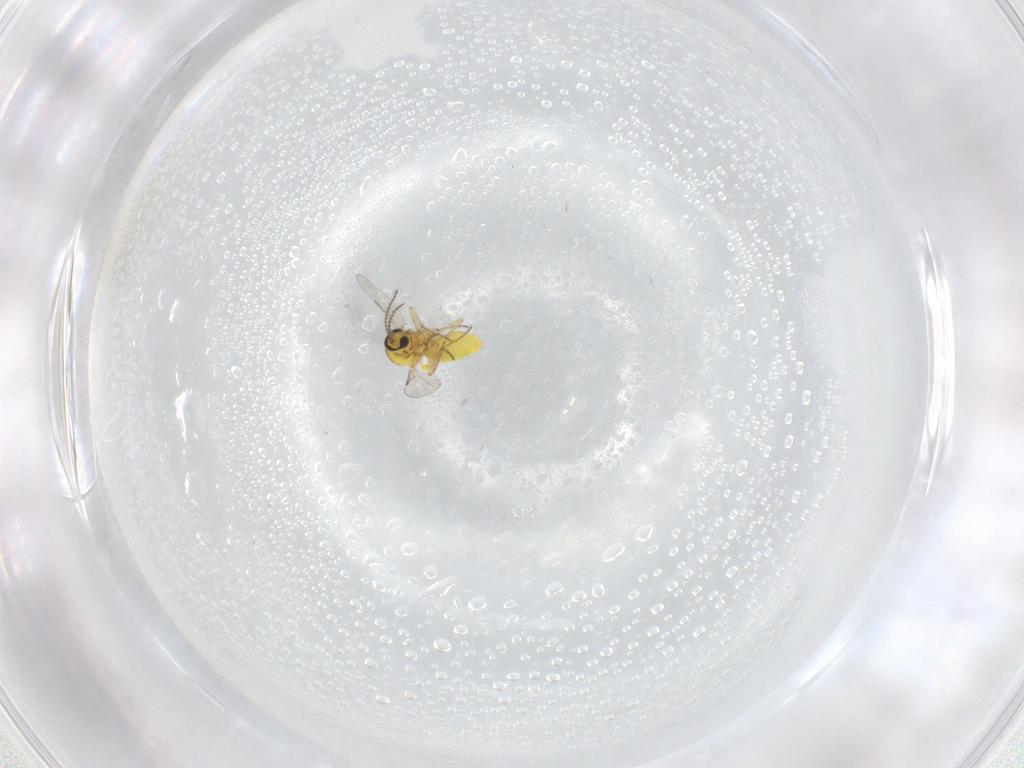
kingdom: Animalia
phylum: Arthropoda
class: Insecta
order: Diptera
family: Ceratopogonidae
